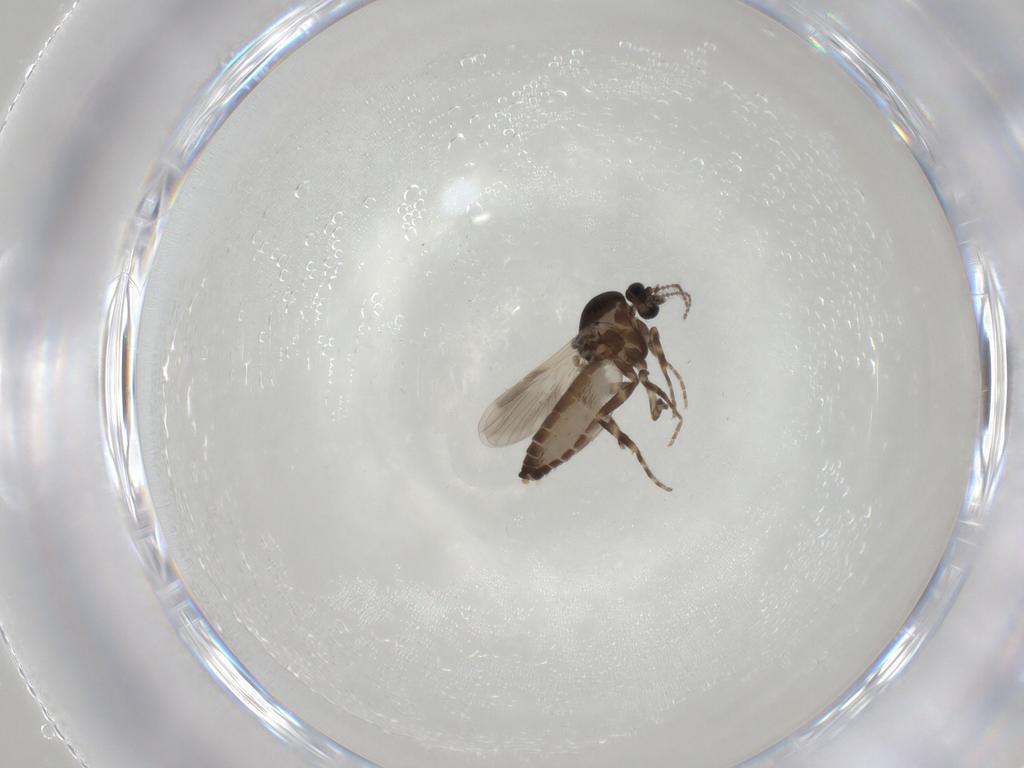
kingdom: Animalia
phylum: Arthropoda
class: Insecta
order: Diptera
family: Ceratopogonidae
